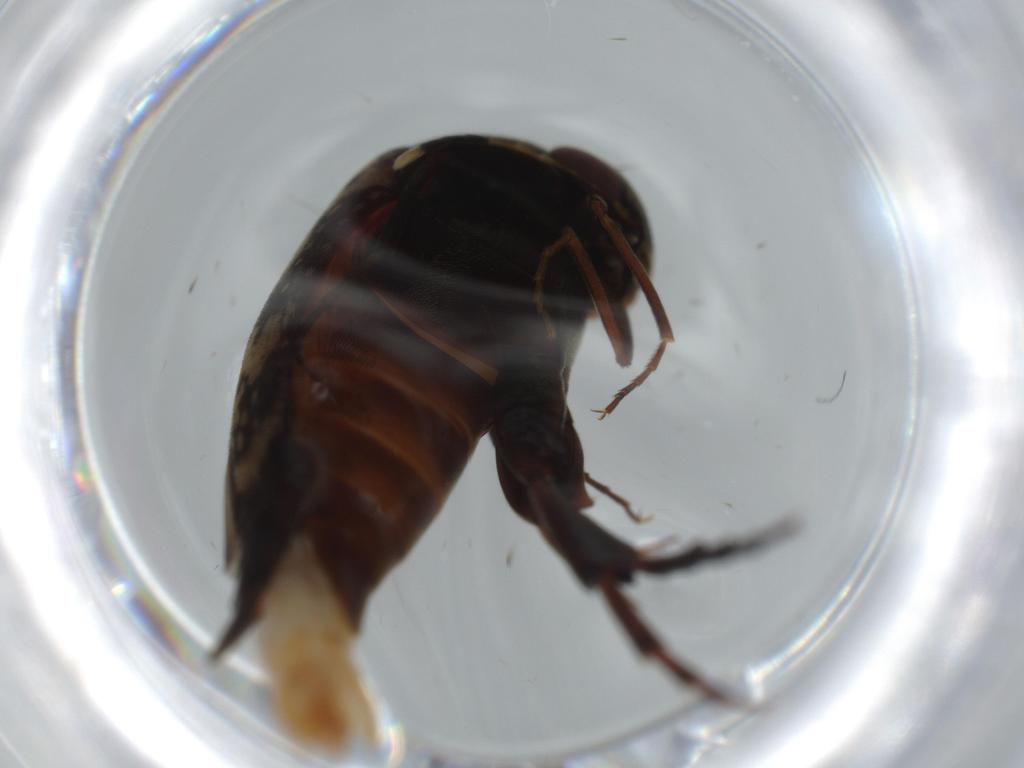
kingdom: Animalia
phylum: Arthropoda
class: Insecta
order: Coleoptera
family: Mordellidae
